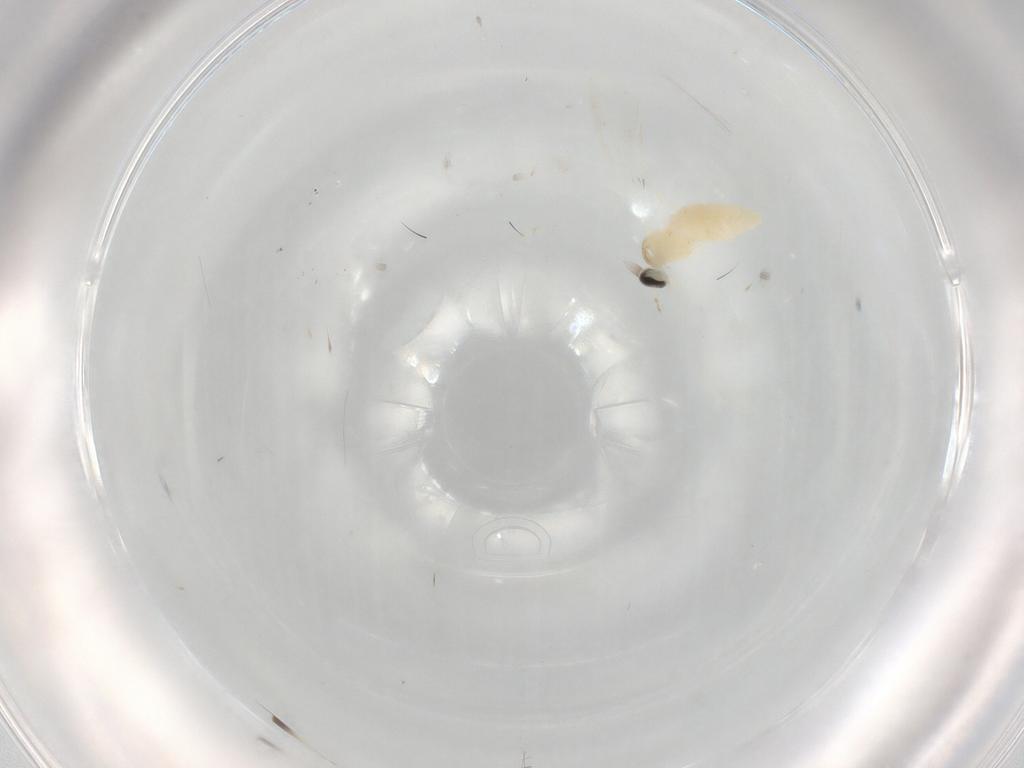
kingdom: Animalia
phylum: Arthropoda
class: Insecta
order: Diptera
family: Cecidomyiidae
